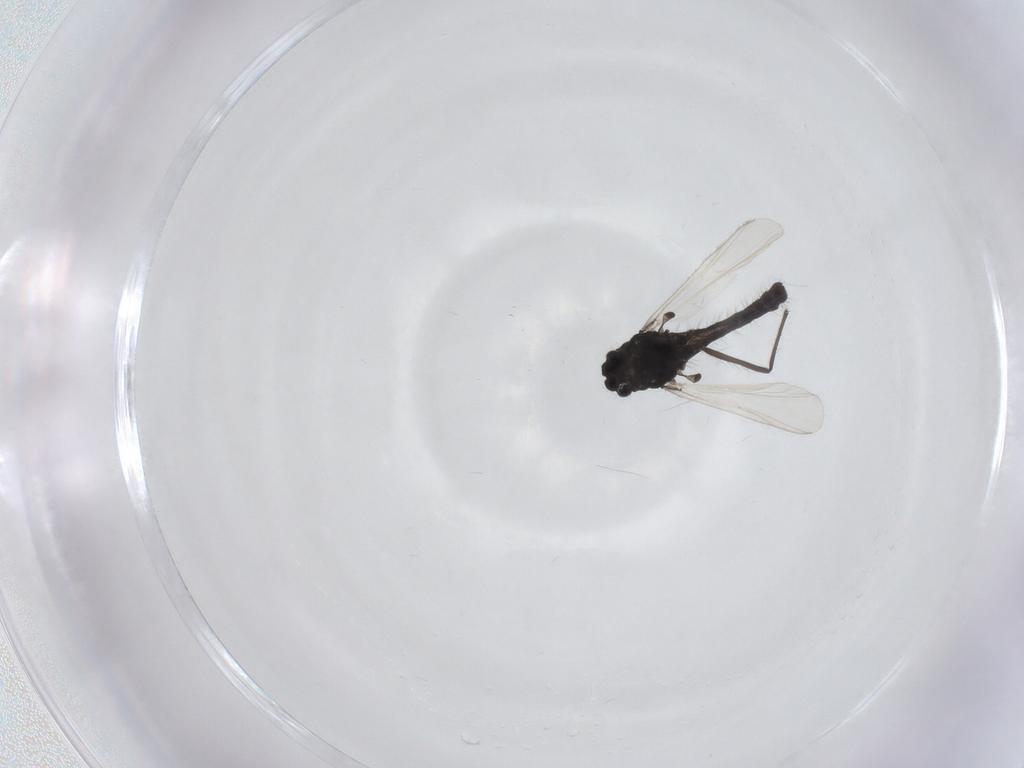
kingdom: Animalia
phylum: Arthropoda
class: Insecta
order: Diptera
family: Chironomidae
